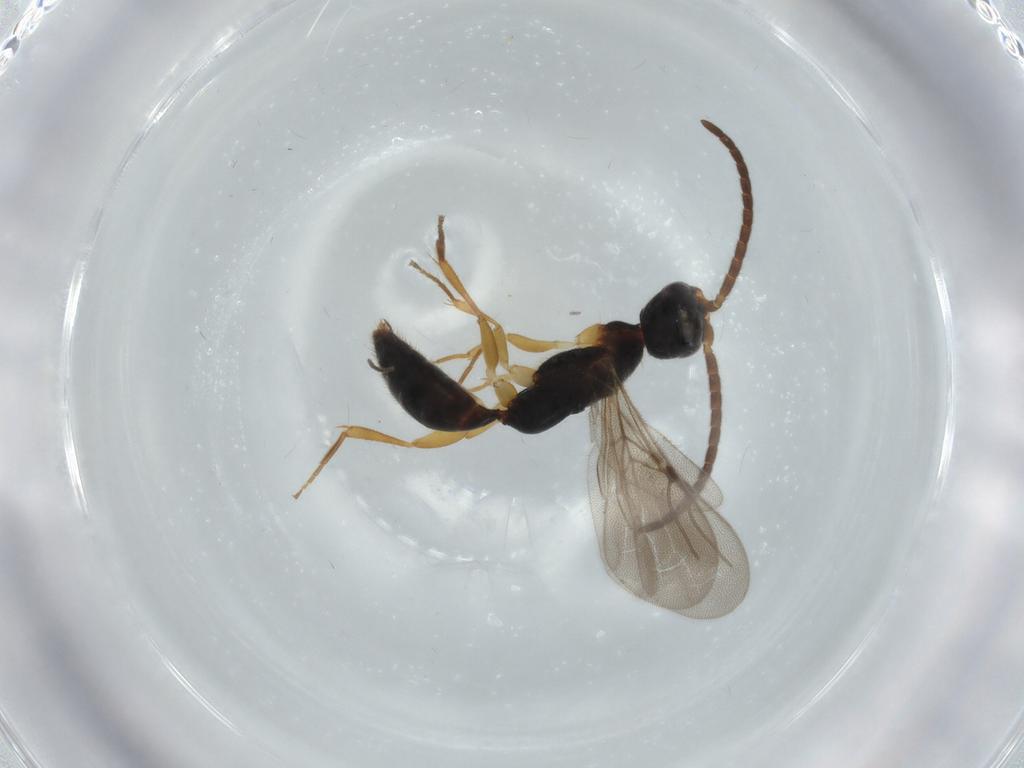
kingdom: Animalia
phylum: Arthropoda
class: Insecta
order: Hymenoptera
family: Bethylidae
